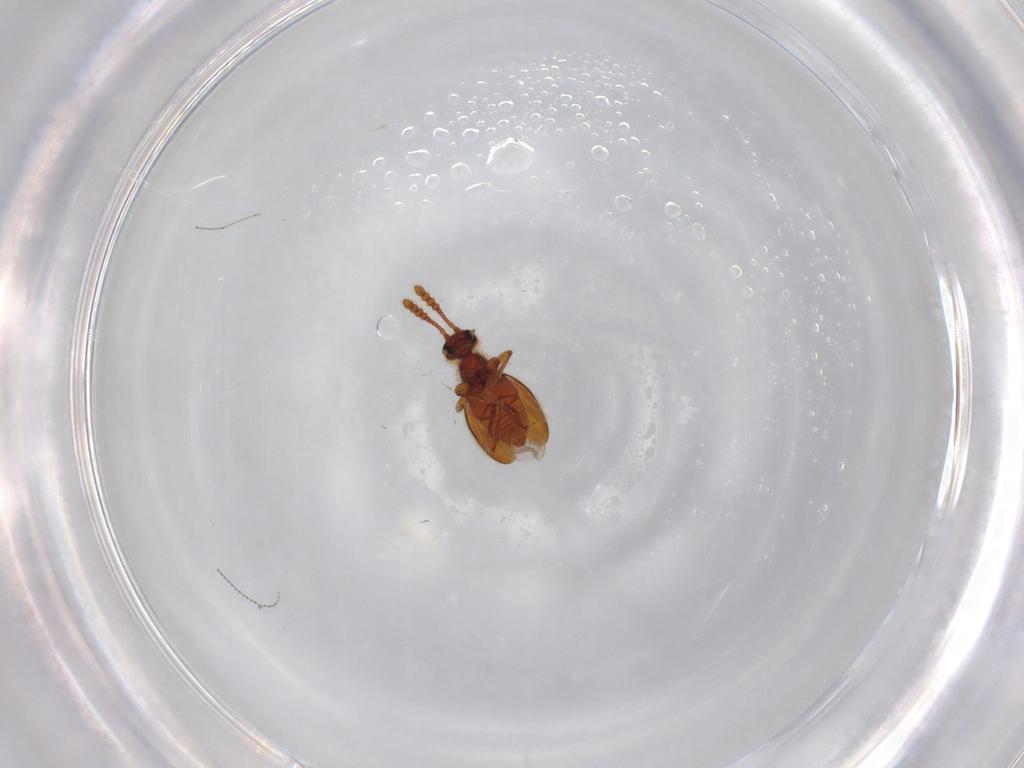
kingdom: Animalia
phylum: Arthropoda
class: Insecta
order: Coleoptera
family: Staphylinidae
